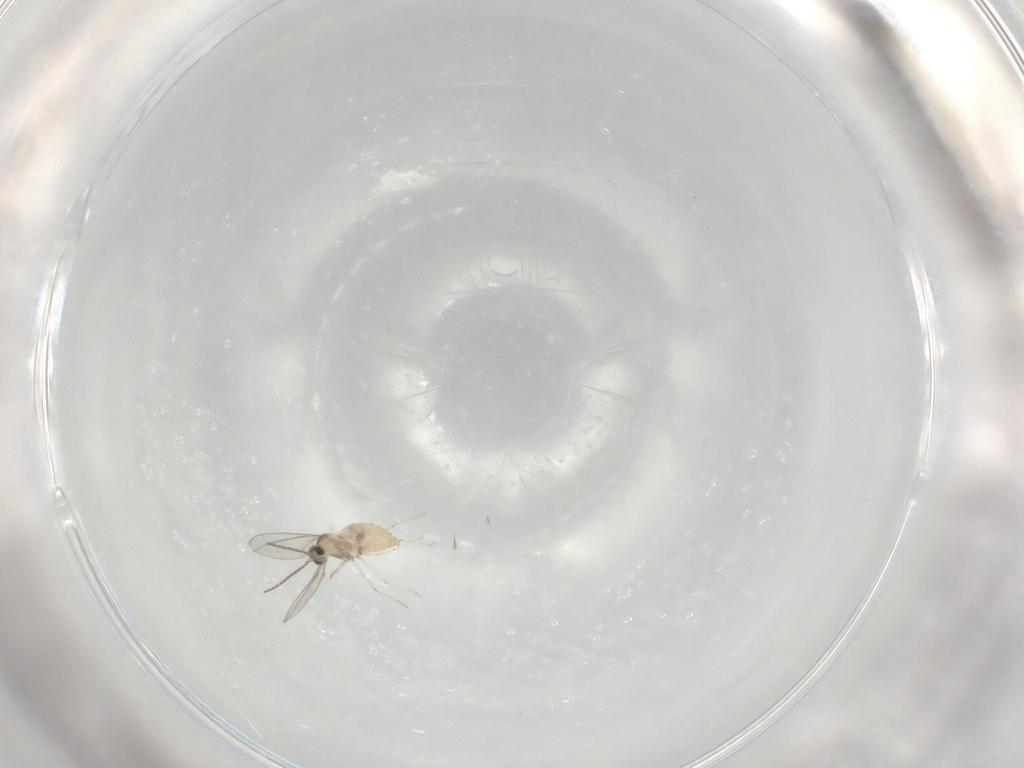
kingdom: Animalia
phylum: Arthropoda
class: Insecta
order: Diptera
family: Cecidomyiidae
